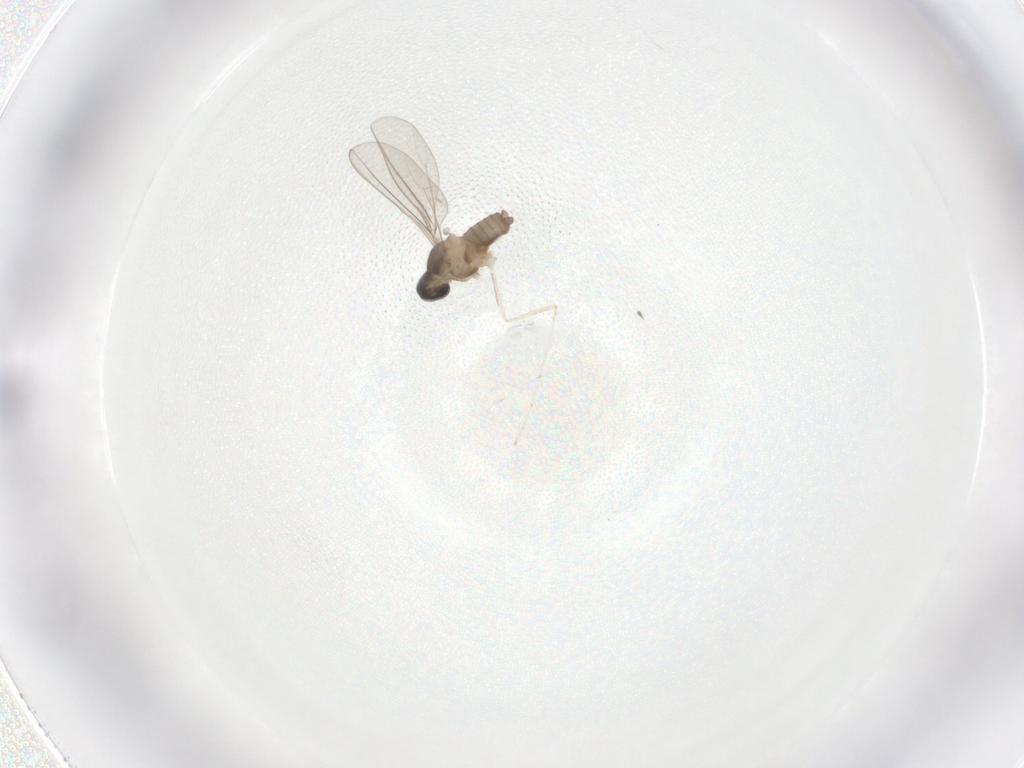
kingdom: Animalia
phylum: Arthropoda
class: Insecta
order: Diptera
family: Cecidomyiidae
